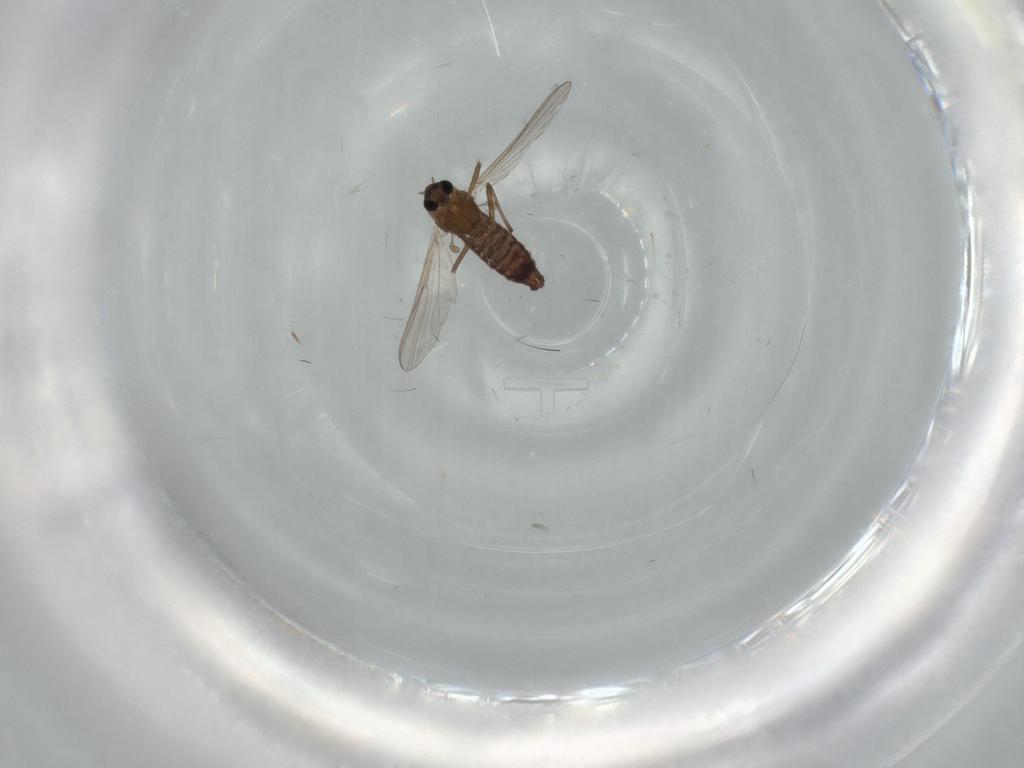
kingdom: Animalia
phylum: Arthropoda
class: Insecta
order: Diptera
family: Chironomidae
